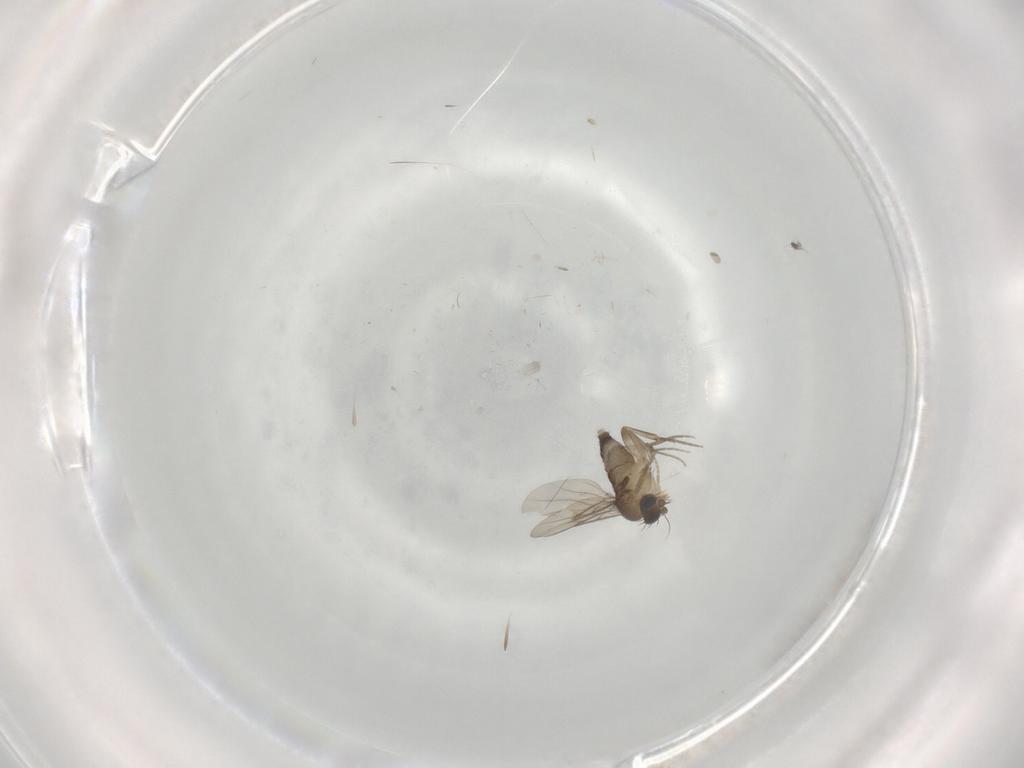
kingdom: Animalia
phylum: Arthropoda
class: Insecta
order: Diptera
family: Phoridae
